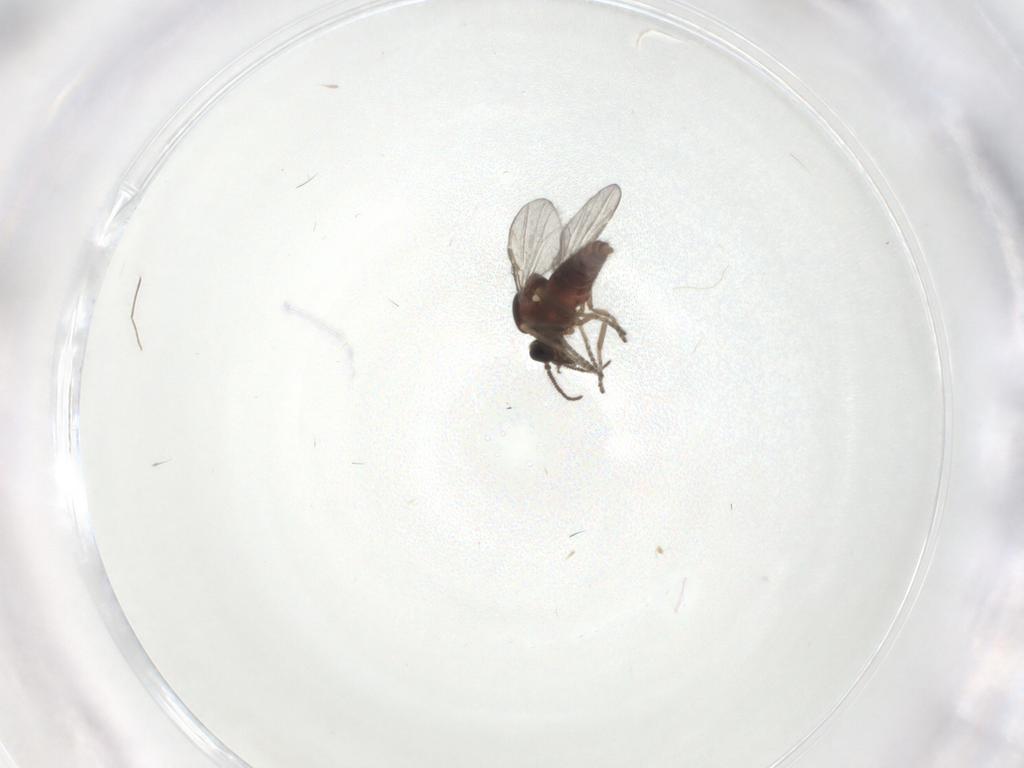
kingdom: Animalia
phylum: Arthropoda
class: Insecta
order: Diptera
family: Ceratopogonidae
